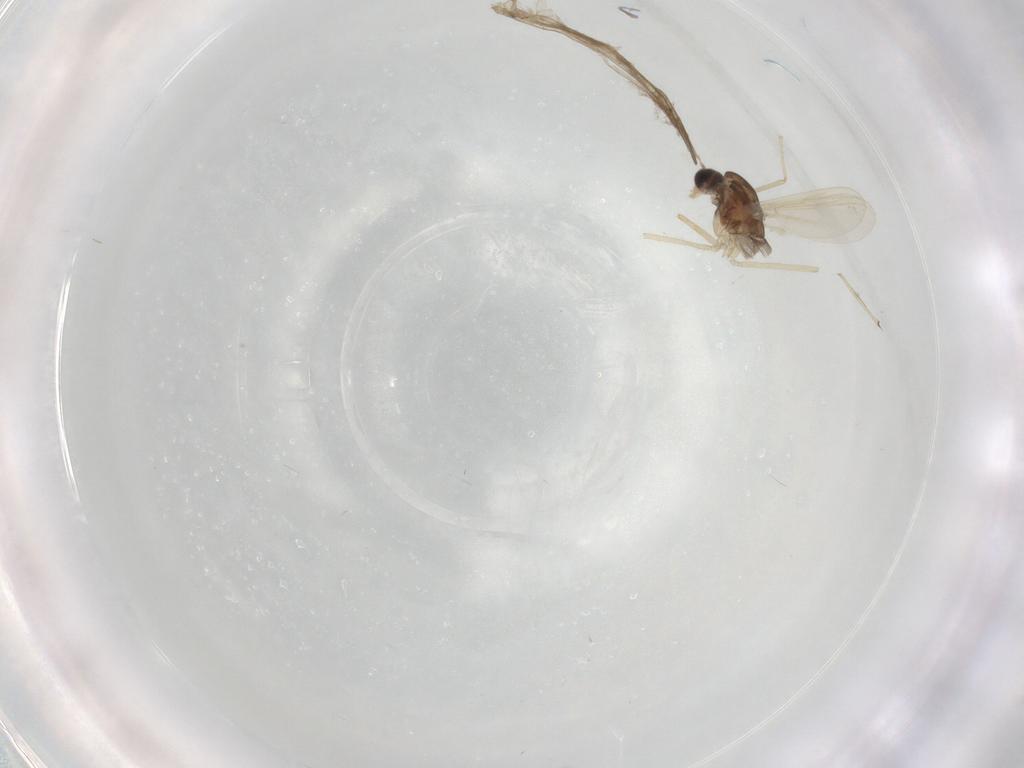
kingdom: Animalia
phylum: Arthropoda
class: Insecta
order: Diptera
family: Chironomidae
